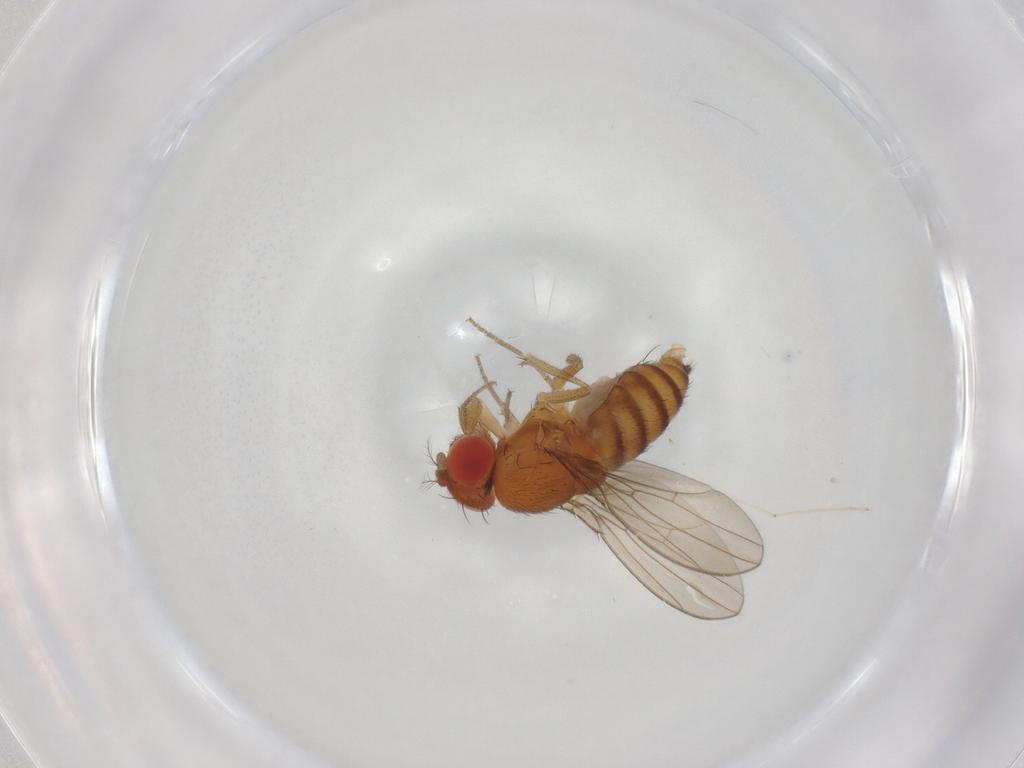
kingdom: Animalia
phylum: Arthropoda
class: Insecta
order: Diptera
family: Drosophilidae
